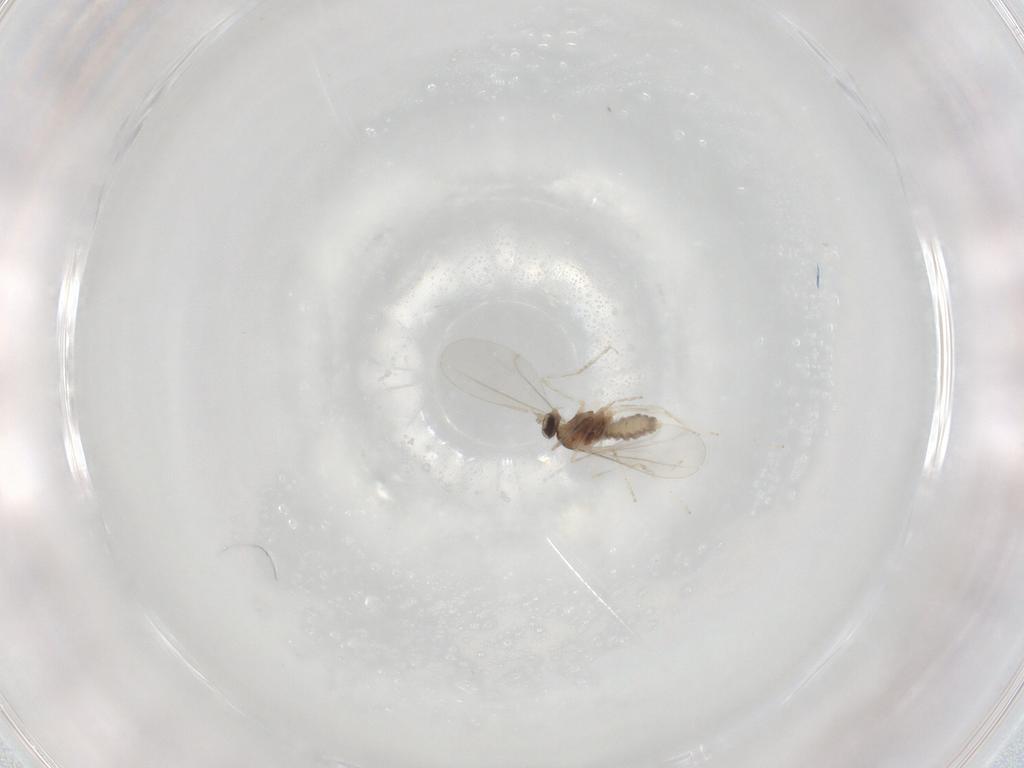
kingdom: Animalia
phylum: Arthropoda
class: Insecta
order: Diptera
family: Cecidomyiidae
